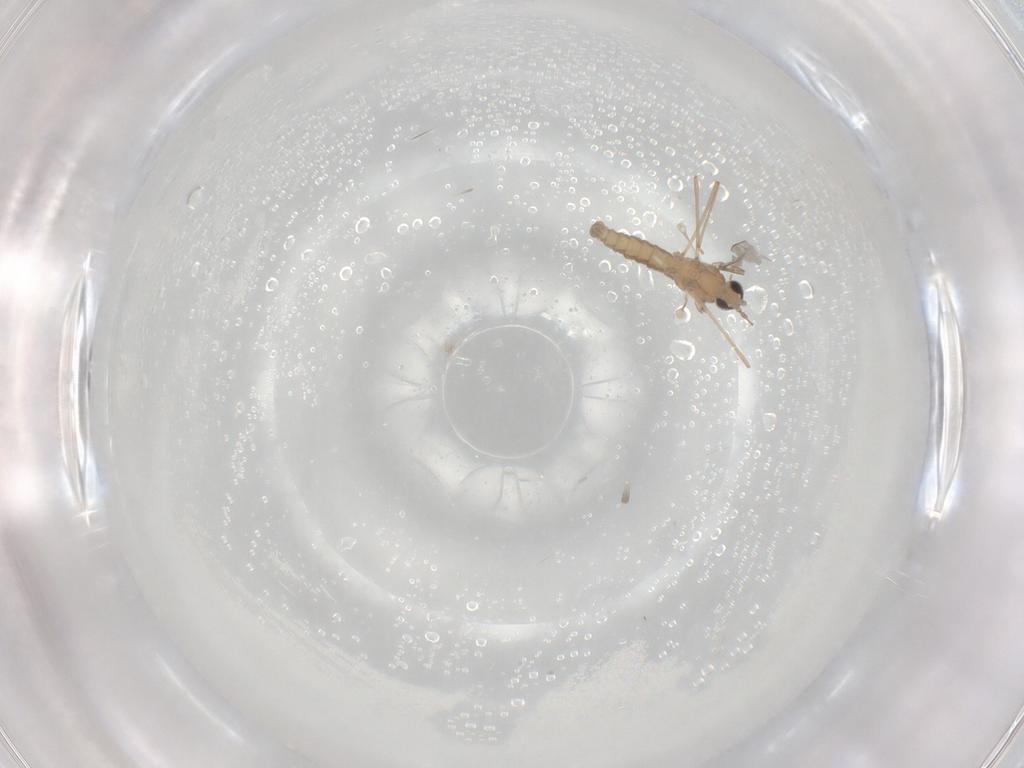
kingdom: Animalia
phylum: Arthropoda
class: Insecta
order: Diptera
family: Cecidomyiidae
